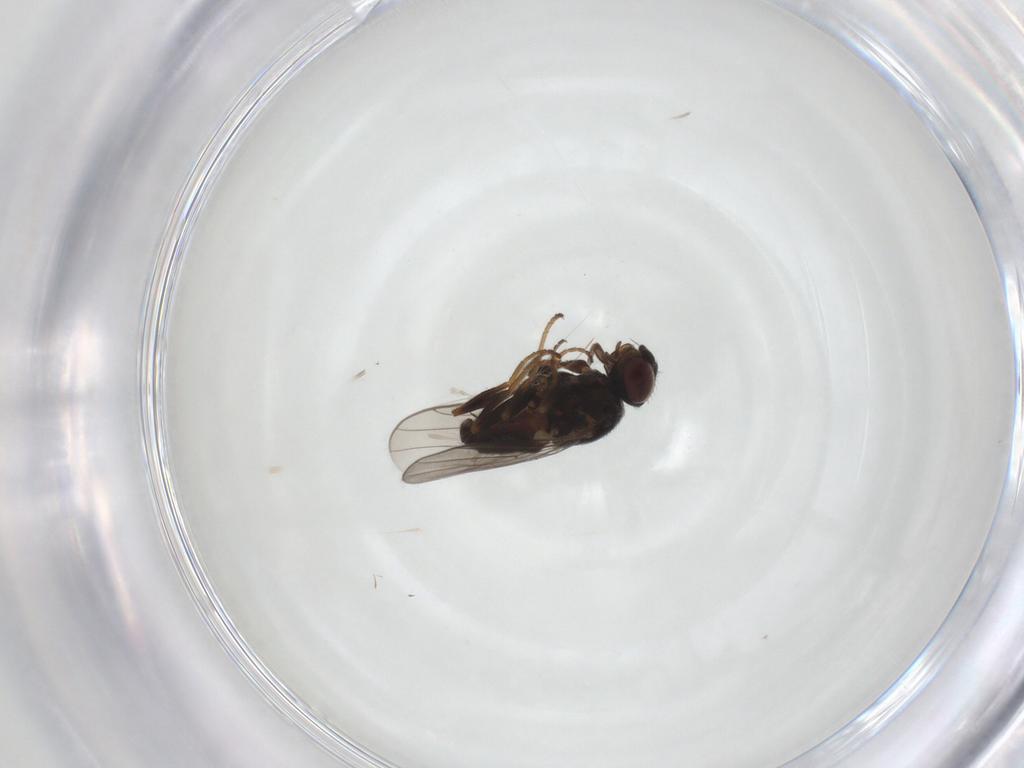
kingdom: Animalia
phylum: Arthropoda
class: Insecta
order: Diptera
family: Chloropidae
